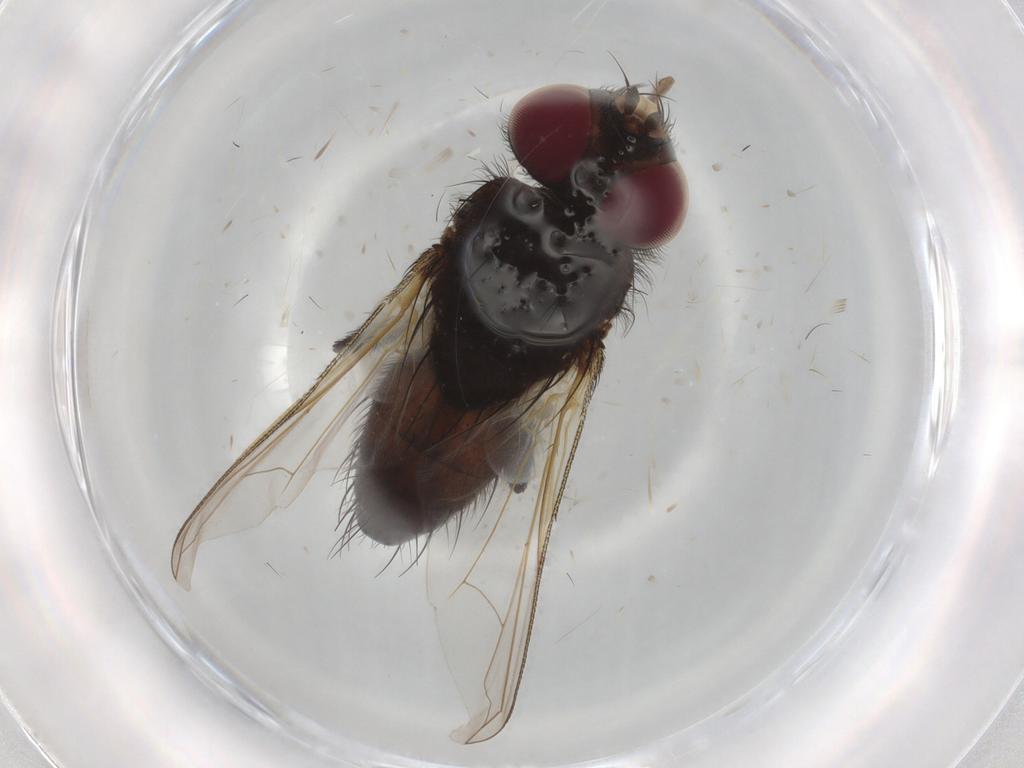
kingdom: Animalia
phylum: Arthropoda
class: Insecta
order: Diptera
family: Tachinidae
